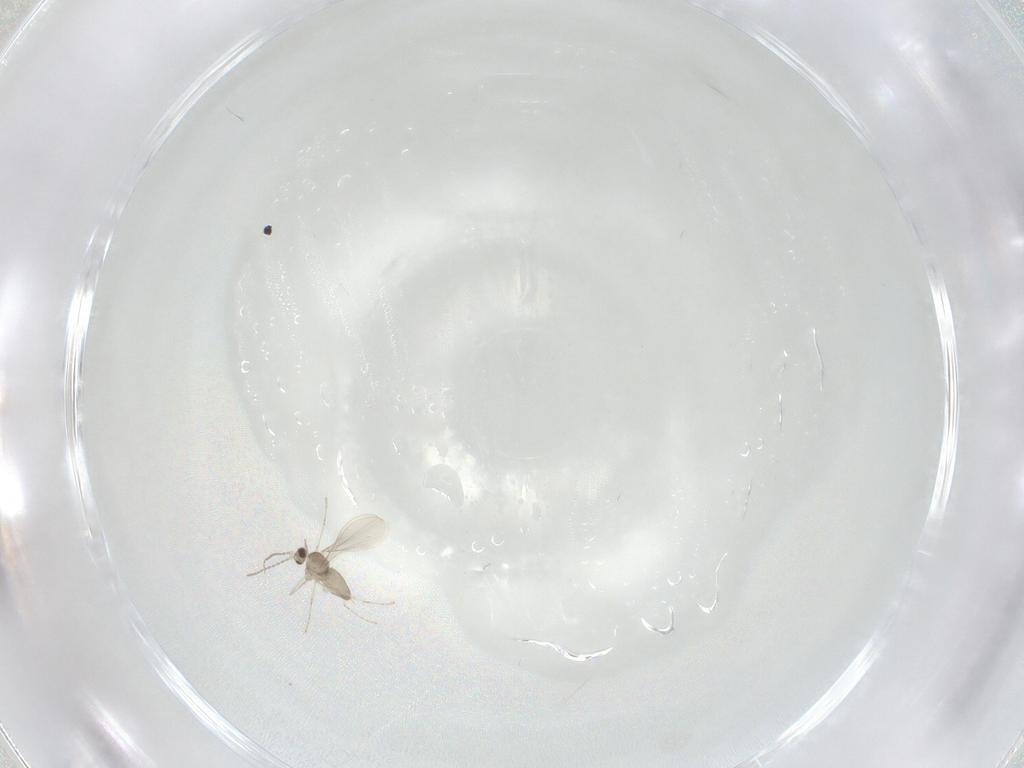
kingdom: Animalia
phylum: Arthropoda
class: Insecta
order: Diptera
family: Cecidomyiidae
